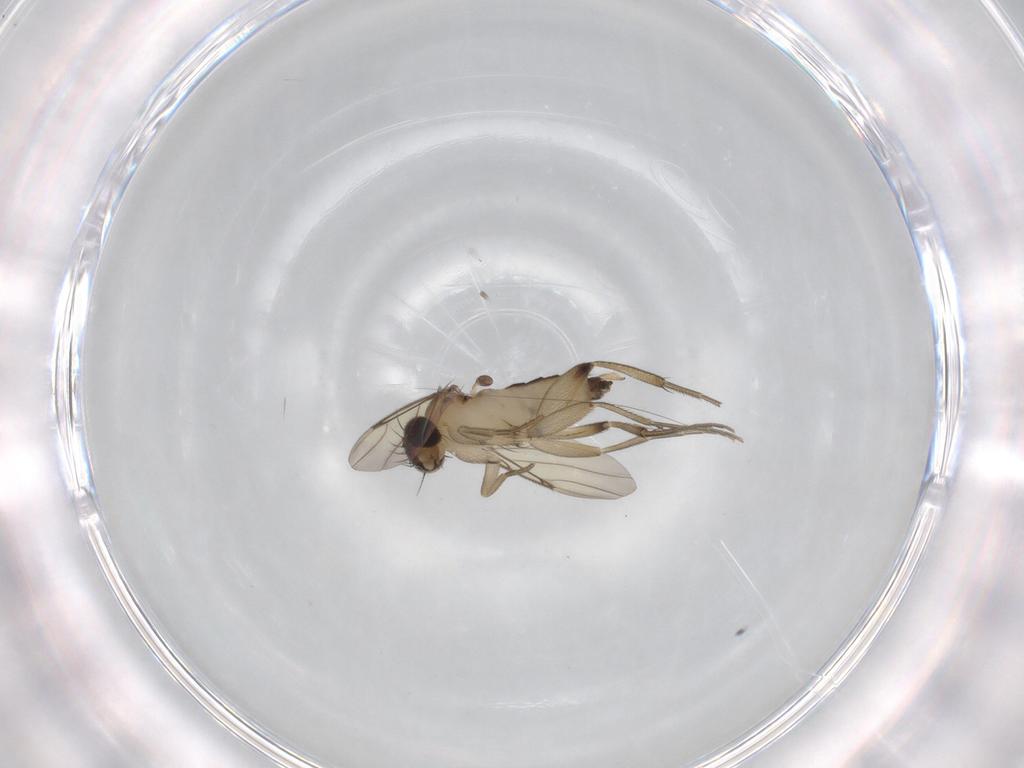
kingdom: Animalia
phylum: Arthropoda
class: Insecta
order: Diptera
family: Phoridae
